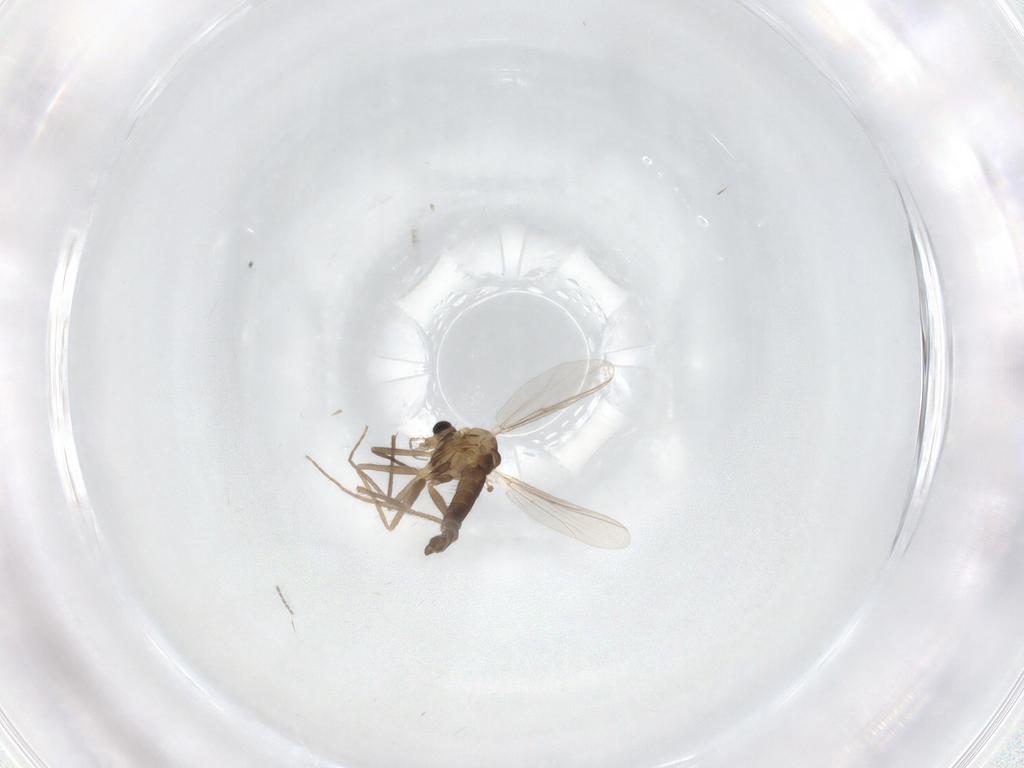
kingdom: Animalia
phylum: Arthropoda
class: Insecta
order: Diptera
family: Chironomidae
